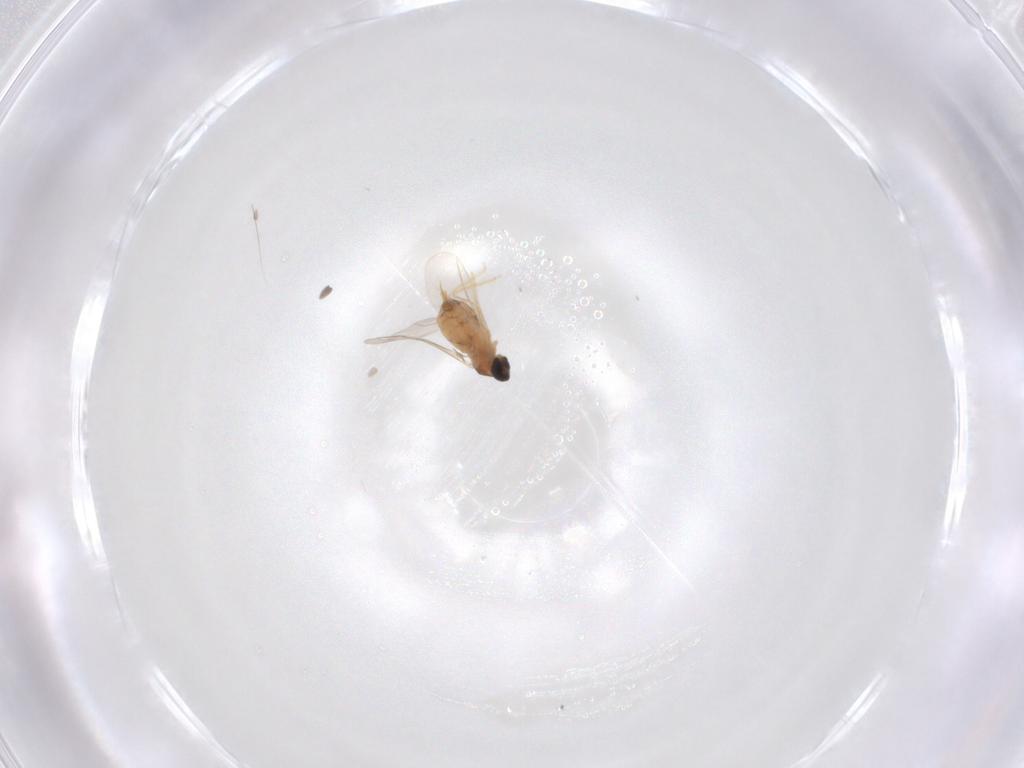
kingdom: Animalia
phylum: Arthropoda
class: Insecta
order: Diptera
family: Cecidomyiidae
